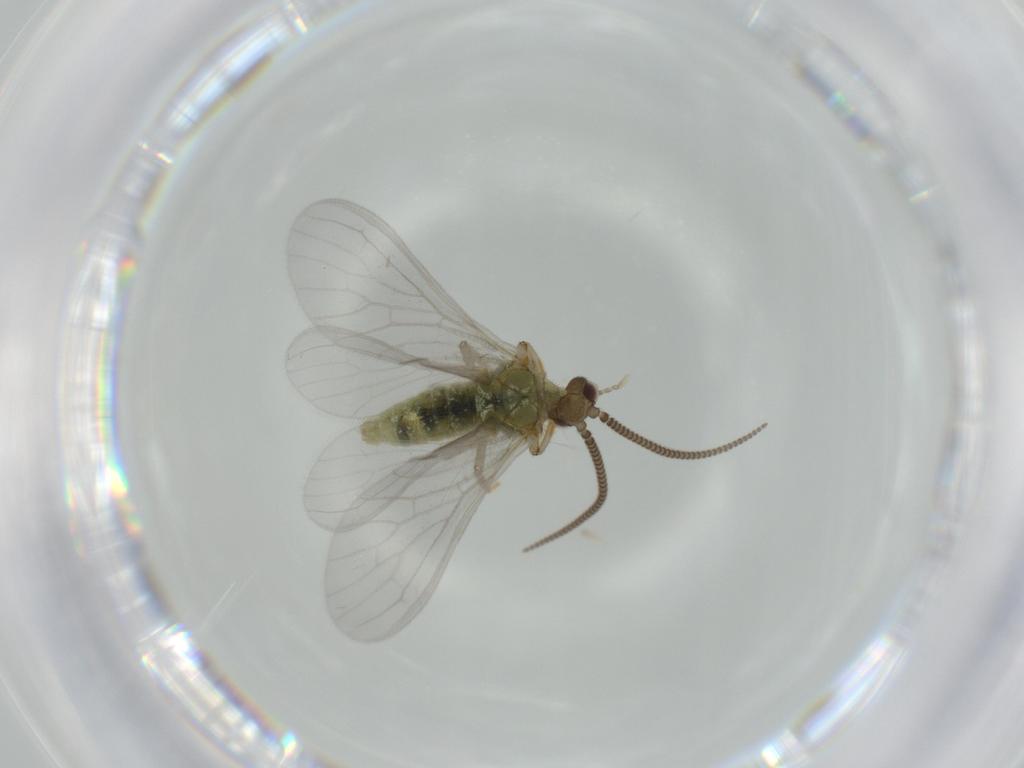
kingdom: Animalia
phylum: Arthropoda
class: Insecta
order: Neuroptera
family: Coniopterygidae
